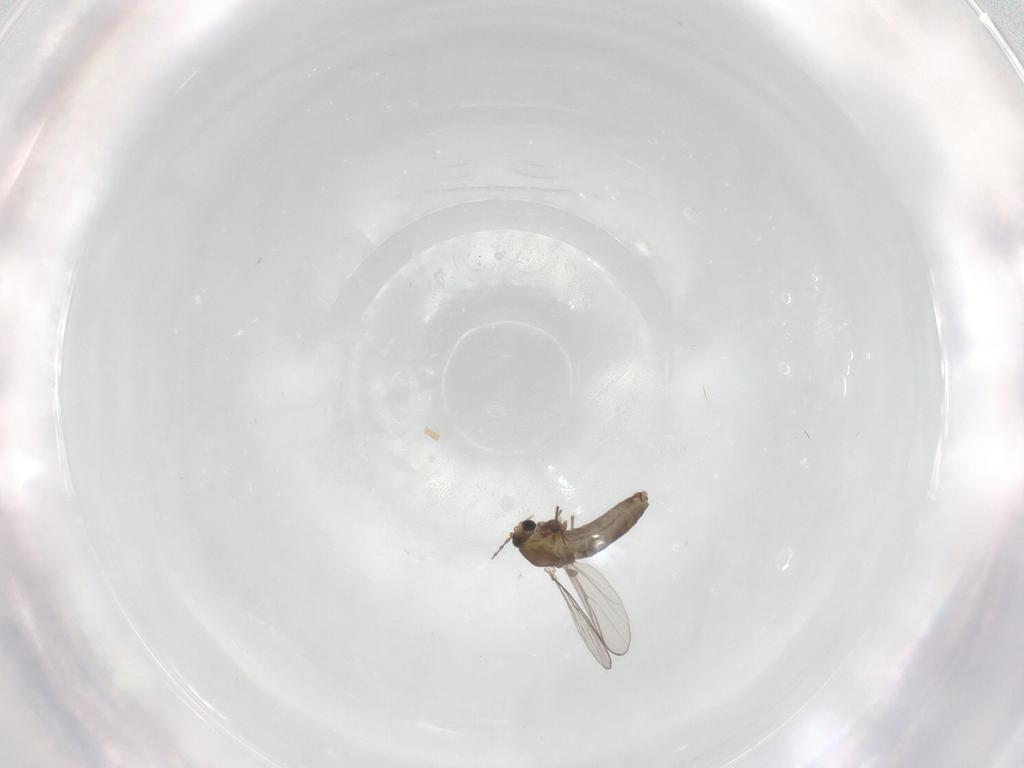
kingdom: Animalia
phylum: Arthropoda
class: Insecta
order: Diptera
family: Chironomidae
